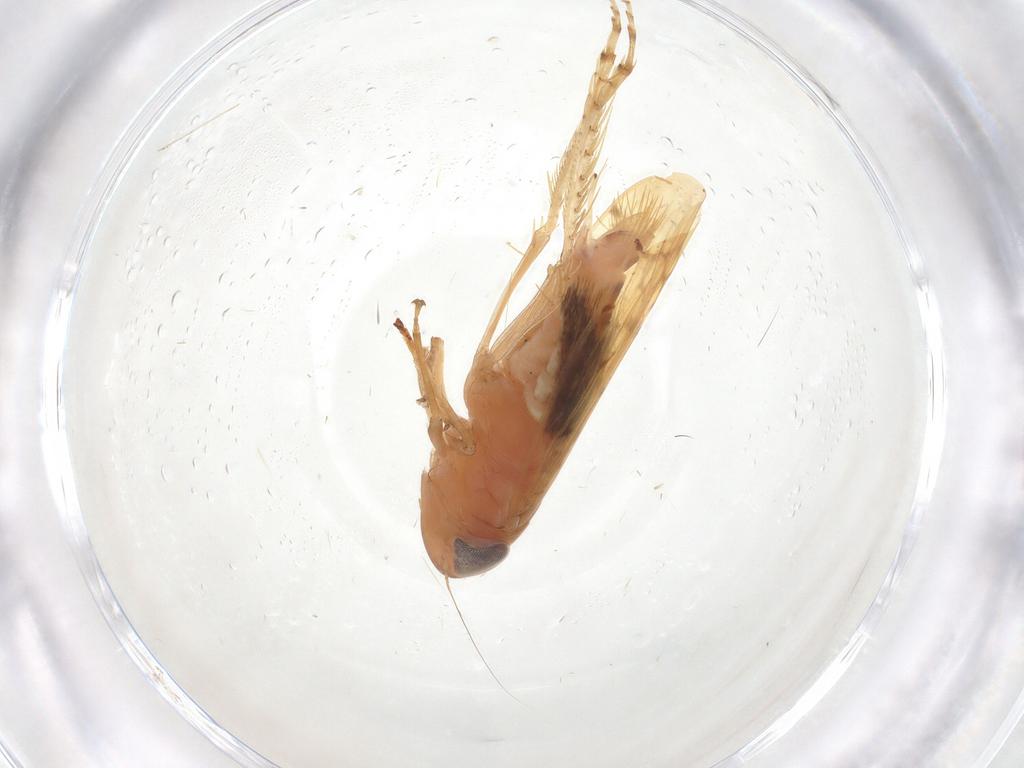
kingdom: Animalia
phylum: Arthropoda
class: Insecta
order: Hemiptera
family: Cicadellidae
